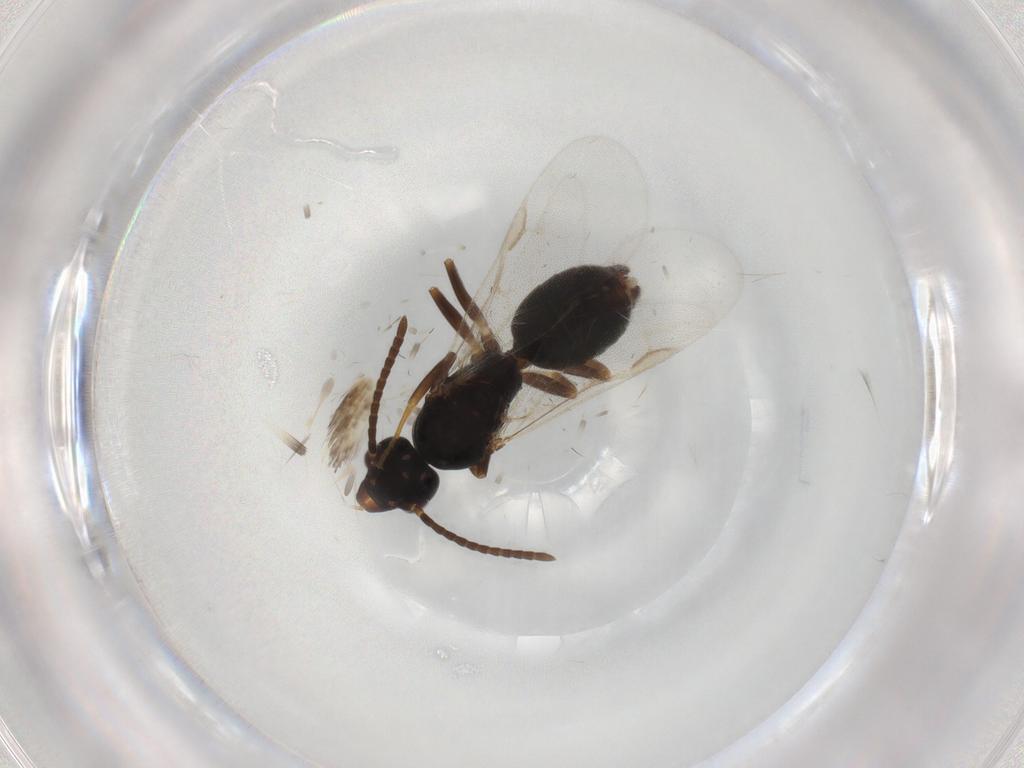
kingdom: Animalia
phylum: Arthropoda
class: Insecta
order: Hymenoptera
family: Formicidae
